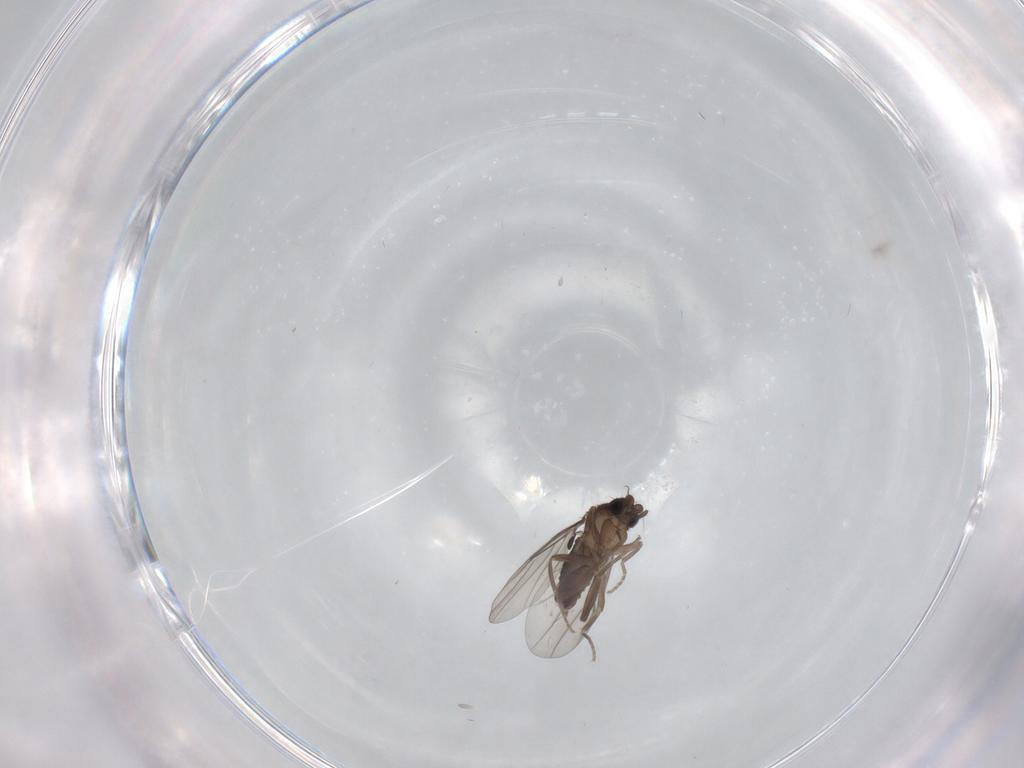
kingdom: Animalia
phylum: Arthropoda
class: Insecta
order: Diptera
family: Cecidomyiidae
